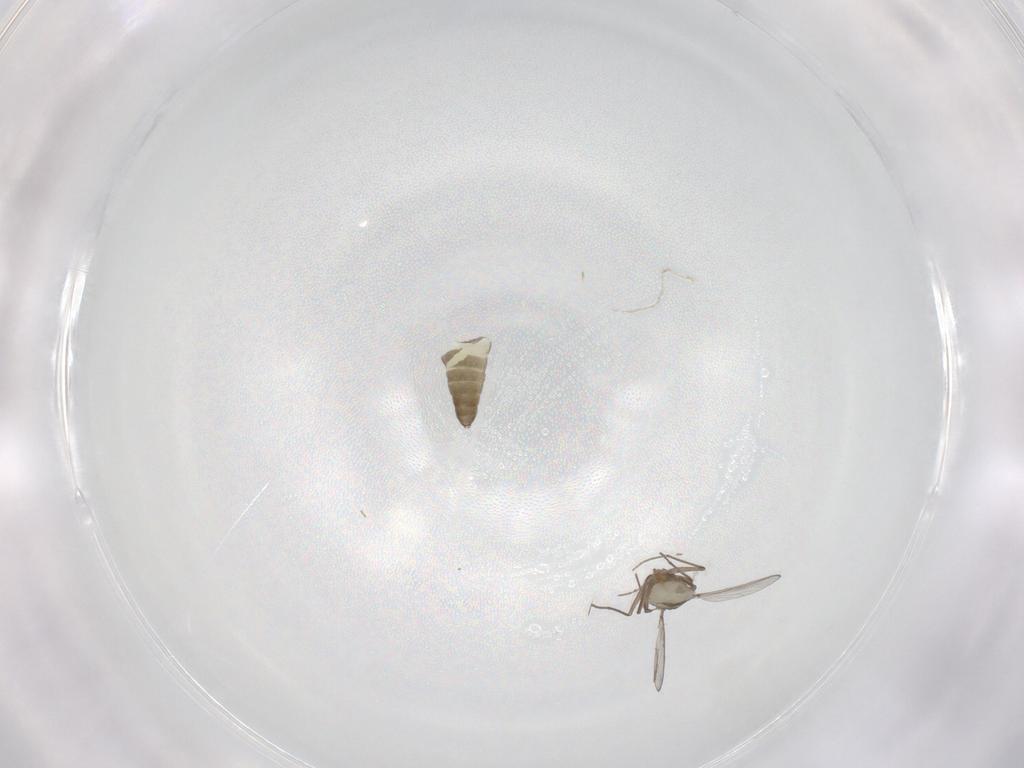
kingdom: Animalia
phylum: Arthropoda
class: Insecta
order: Diptera
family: Chironomidae
